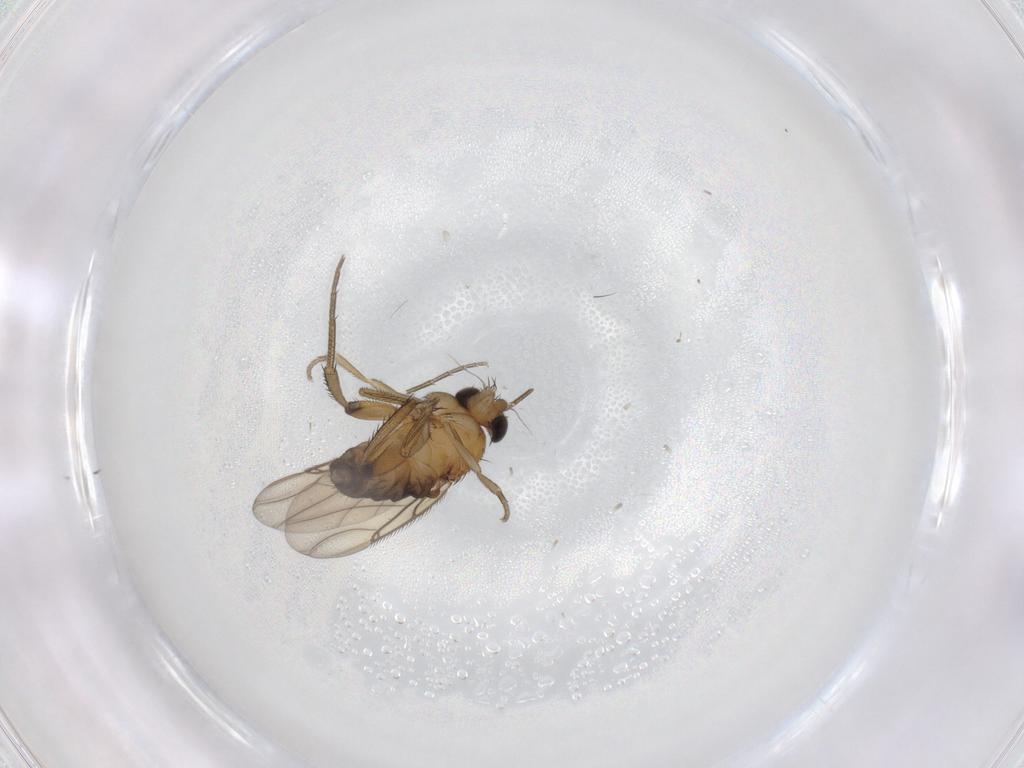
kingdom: Animalia
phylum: Arthropoda
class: Insecta
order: Diptera
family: Phoridae
